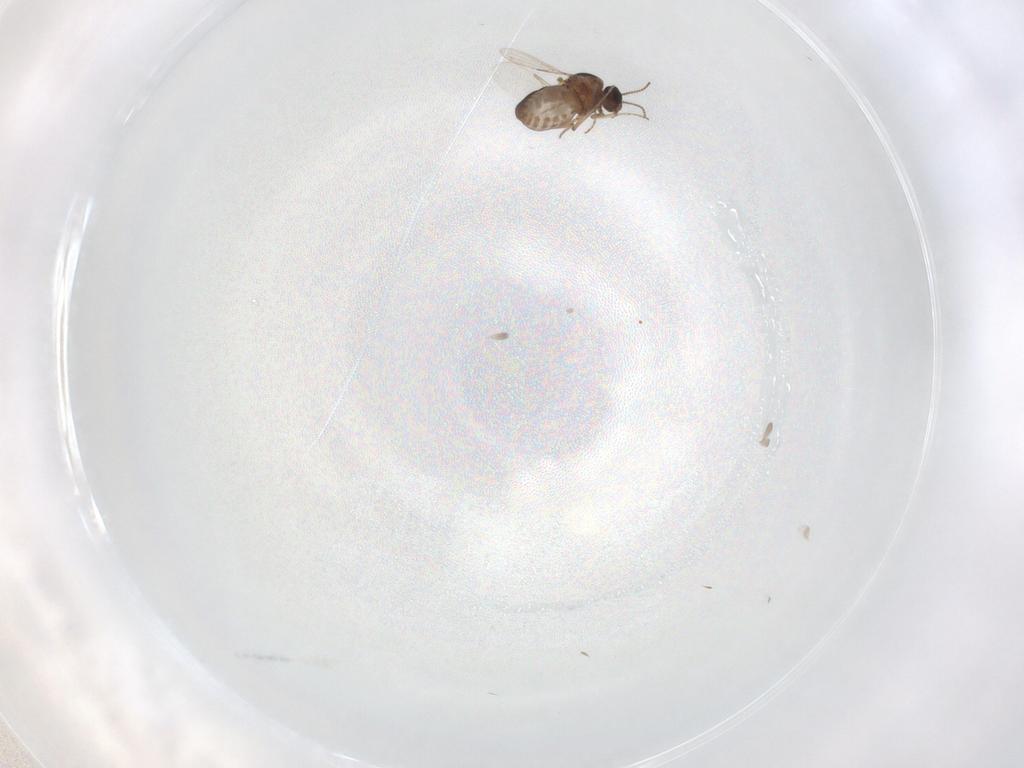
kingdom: Animalia
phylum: Arthropoda
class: Insecta
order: Diptera
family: Ceratopogonidae
